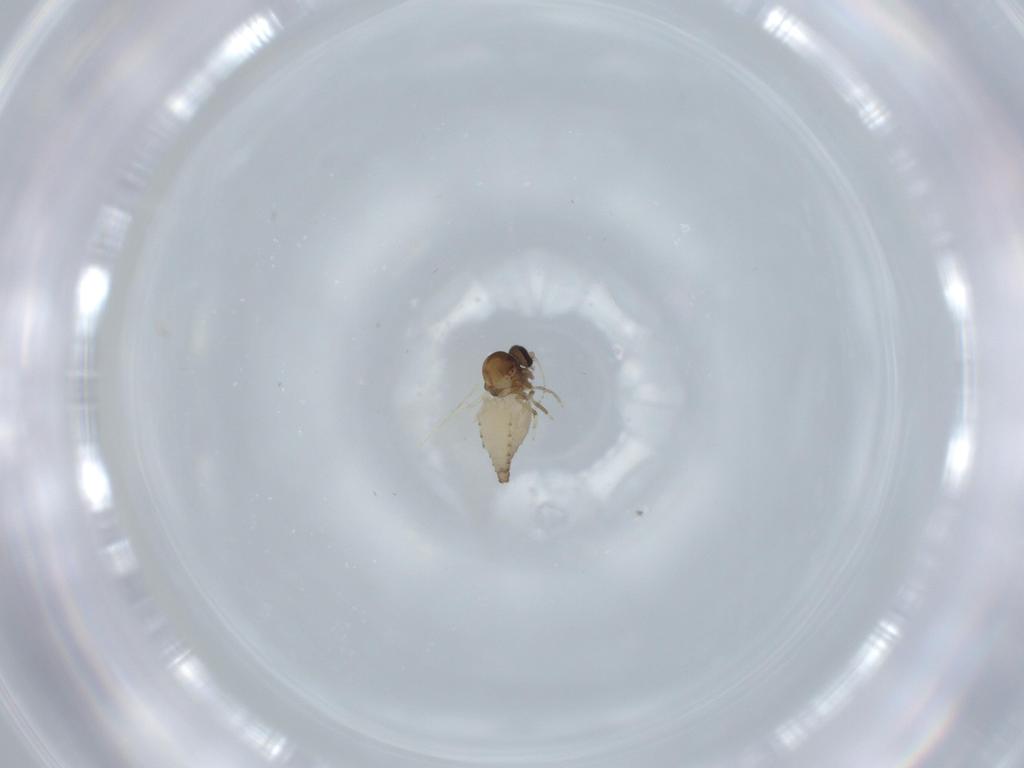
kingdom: Animalia
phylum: Arthropoda
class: Insecta
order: Diptera
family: Ceratopogonidae
